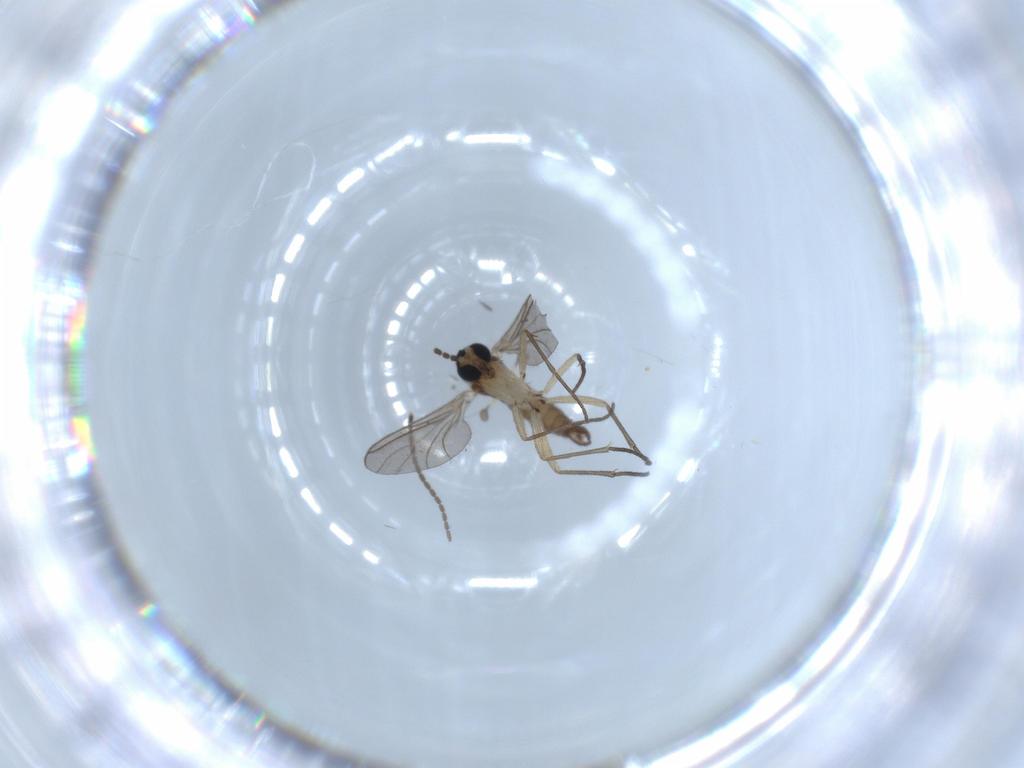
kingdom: Animalia
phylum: Arthropoda
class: Insecta
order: Diptera
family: Sciaridae
